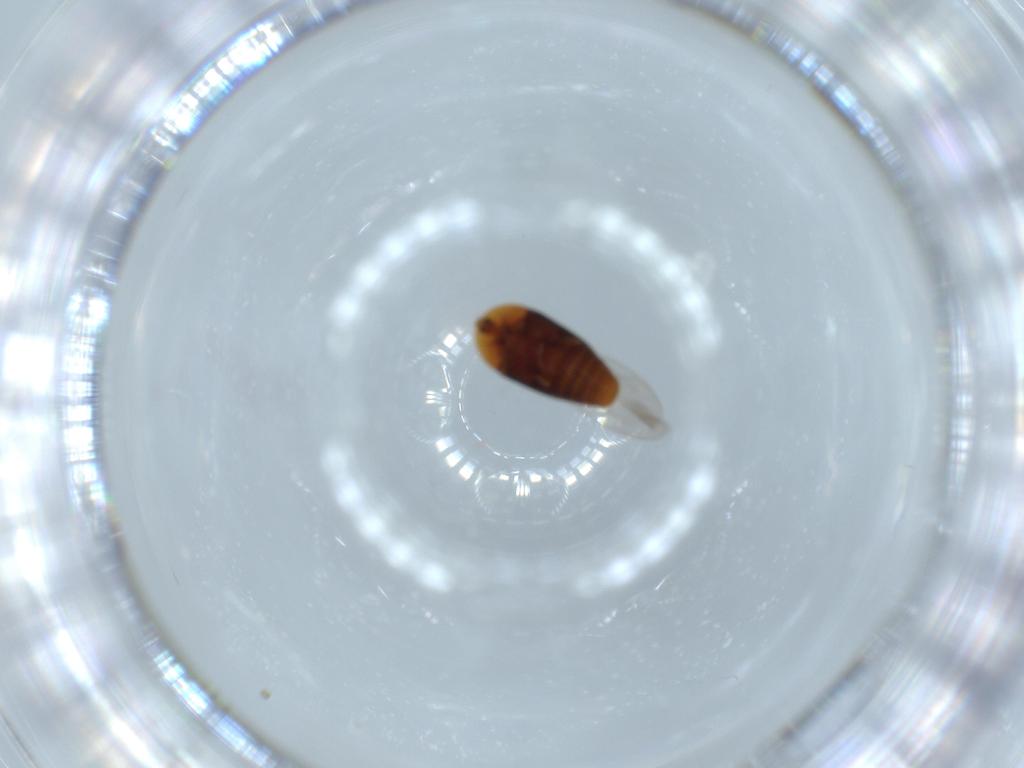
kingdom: Animalia
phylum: Arthropoda
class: Insecta
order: Coleoptera
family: Corylophidae
